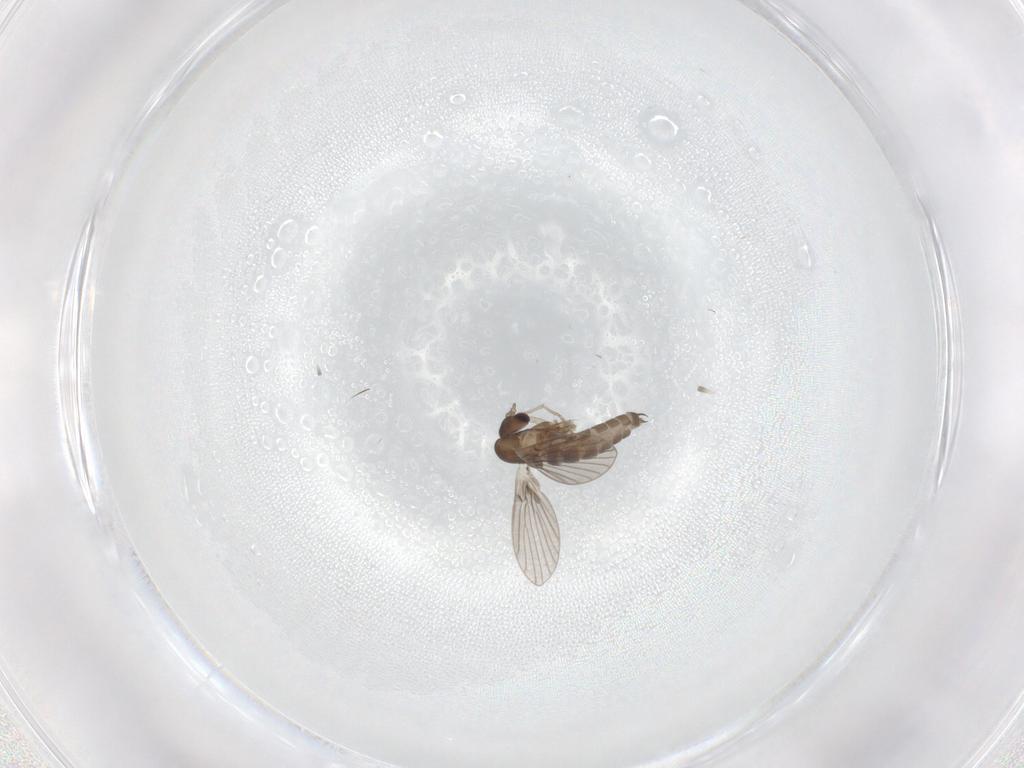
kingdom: Animalia
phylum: Arthropoda
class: Insecta
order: Diptera
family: Psychodidae
